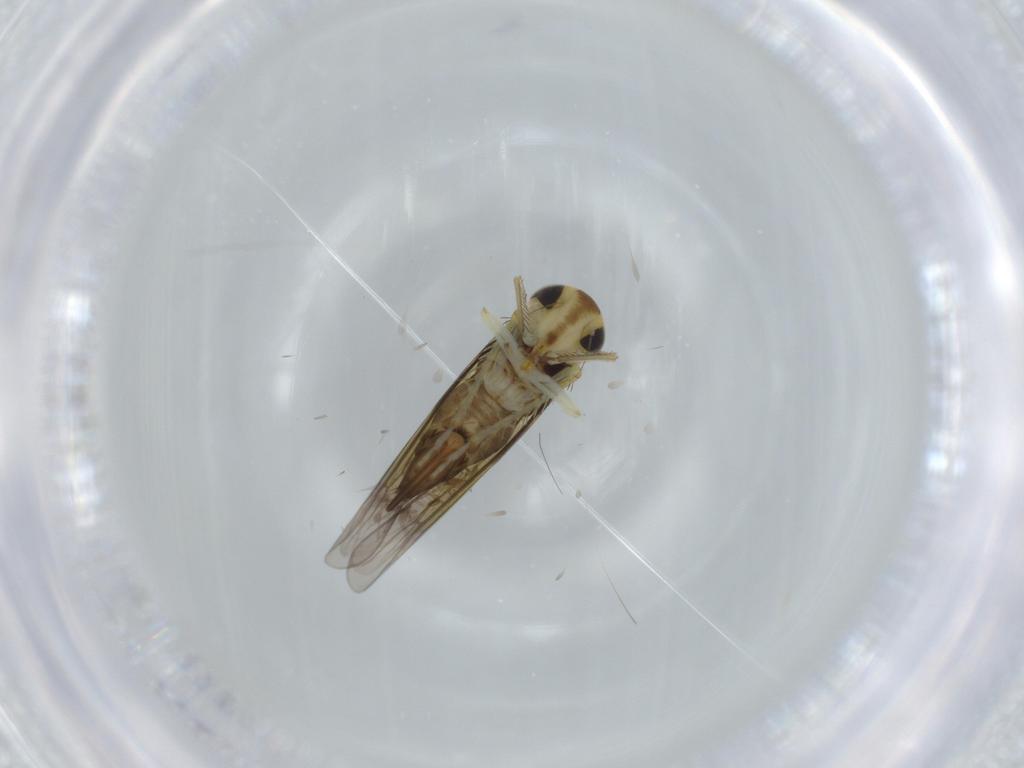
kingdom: Animalia
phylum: Arthropoda
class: Insecta
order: Hemiptera
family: Cicadellidae
